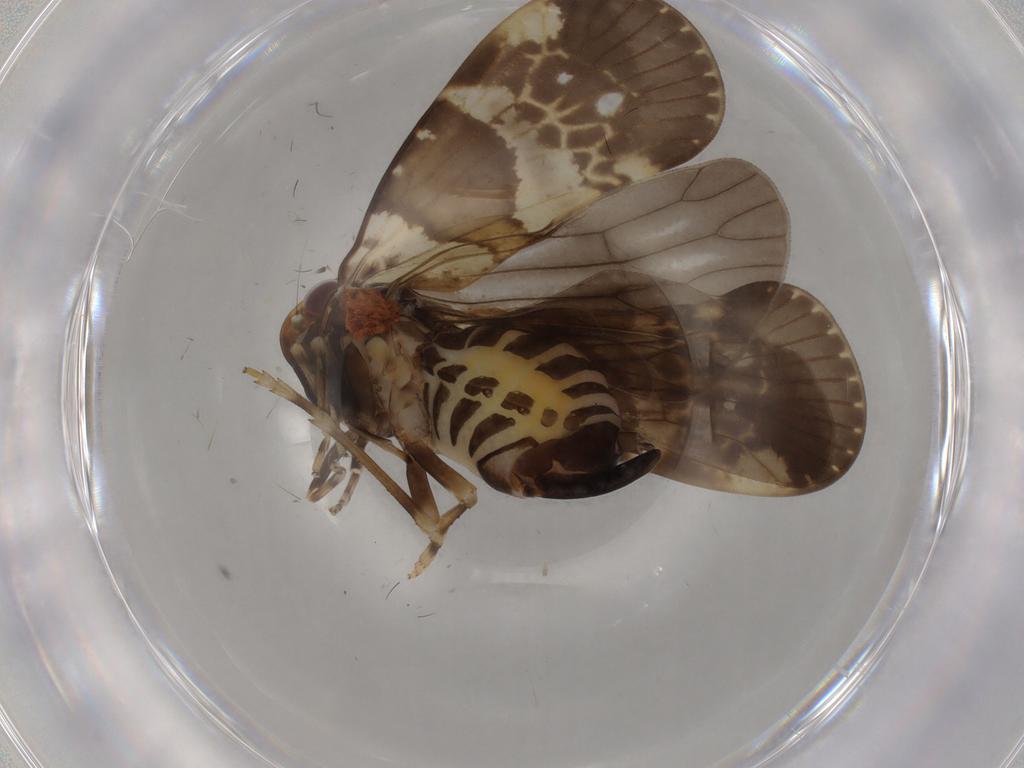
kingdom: Animalia
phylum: Arthropoda
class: Insecta
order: Hemiptera
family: Cixiidae
